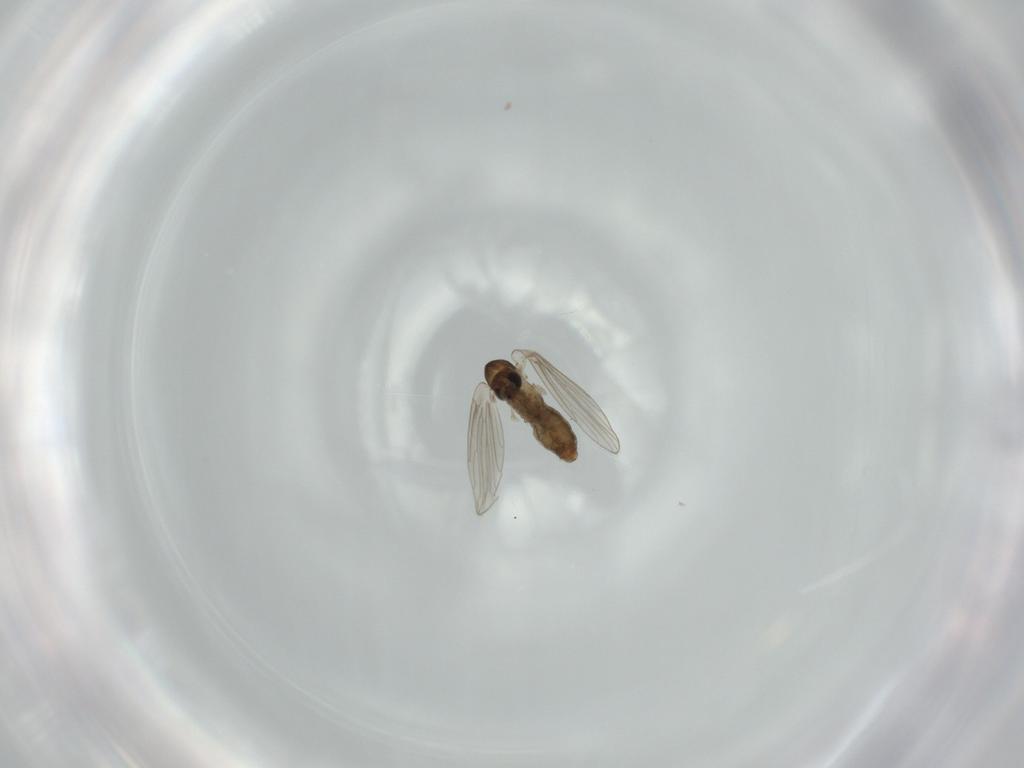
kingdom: Animalia
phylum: Arthropoda
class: Insecta
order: Diptera
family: Psychodidae
